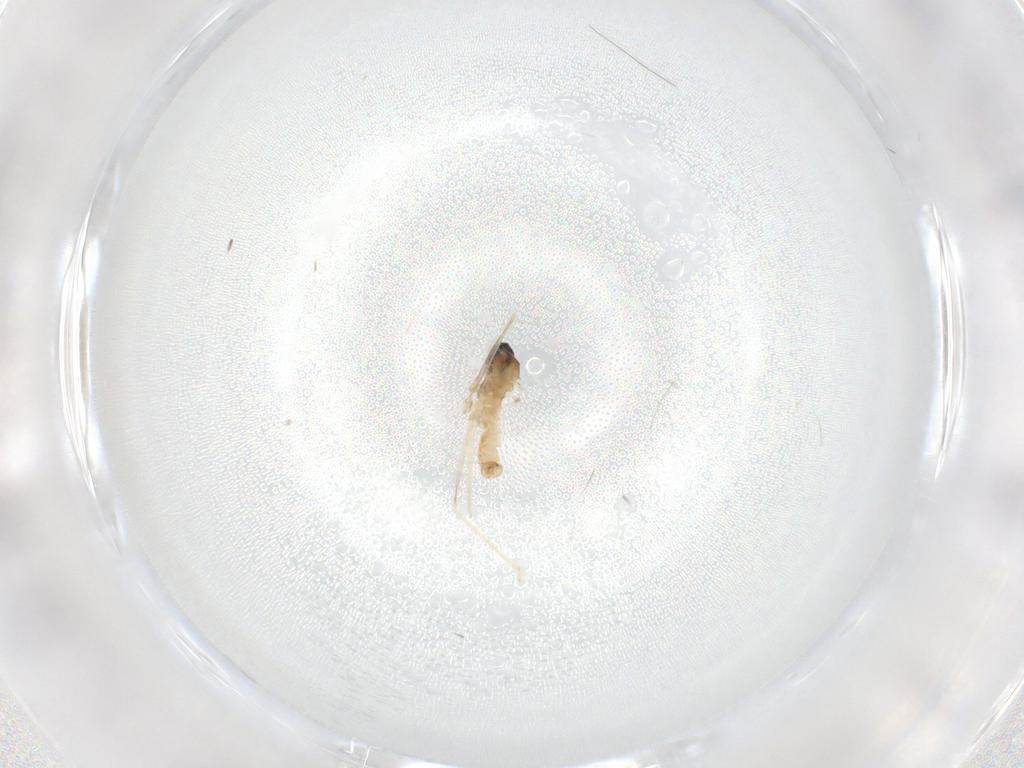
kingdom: Animalia
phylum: Arthropoda
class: Insecta
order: Diptera
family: Cecidomyiidae
